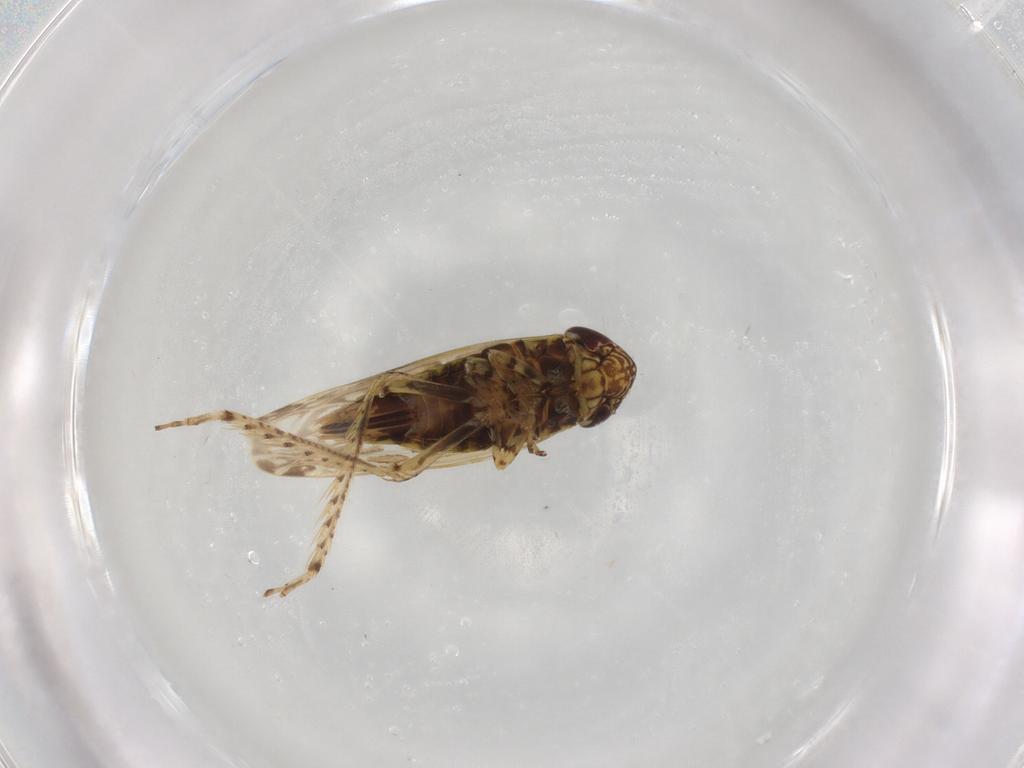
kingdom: Animalia
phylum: Arthropoda
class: Insecta
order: Hemiptera
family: Cicadellidae
